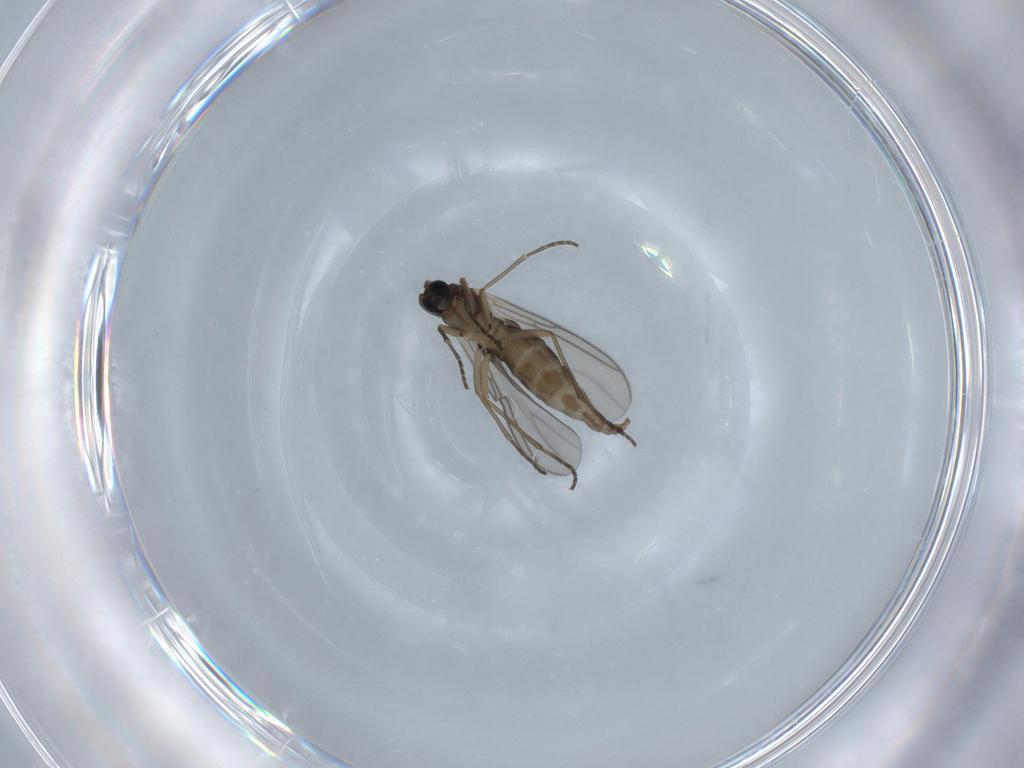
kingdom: Animalia
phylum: Arthropoda
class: Insecta
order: Diptera
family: Sciaridae
